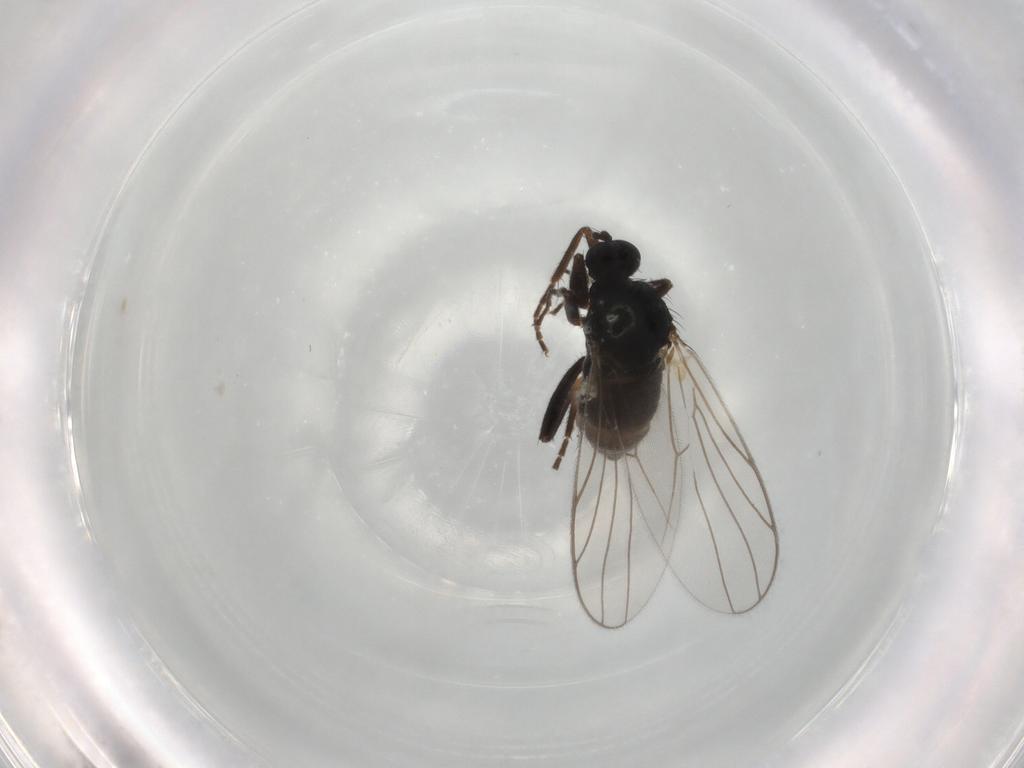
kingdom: Animalia
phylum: Arthropoda
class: Insecta
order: Diptera
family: Hybotidae
